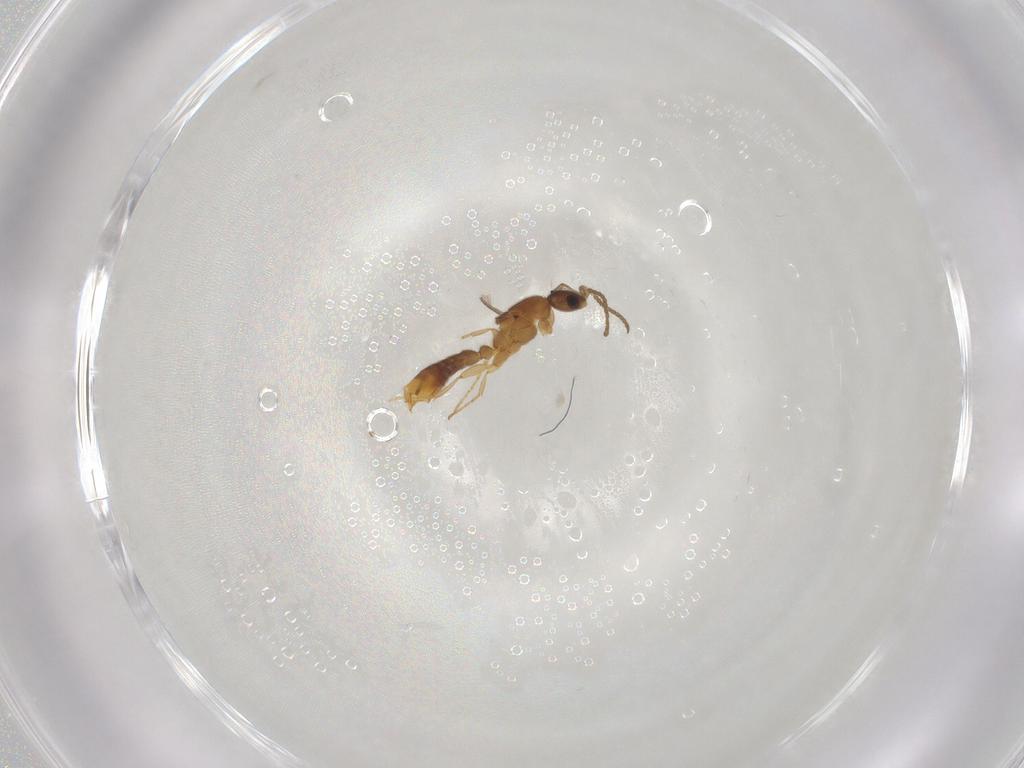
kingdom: Animalia
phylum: Arthropoda
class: Insecta
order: Hymenoptera
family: Formicidae
